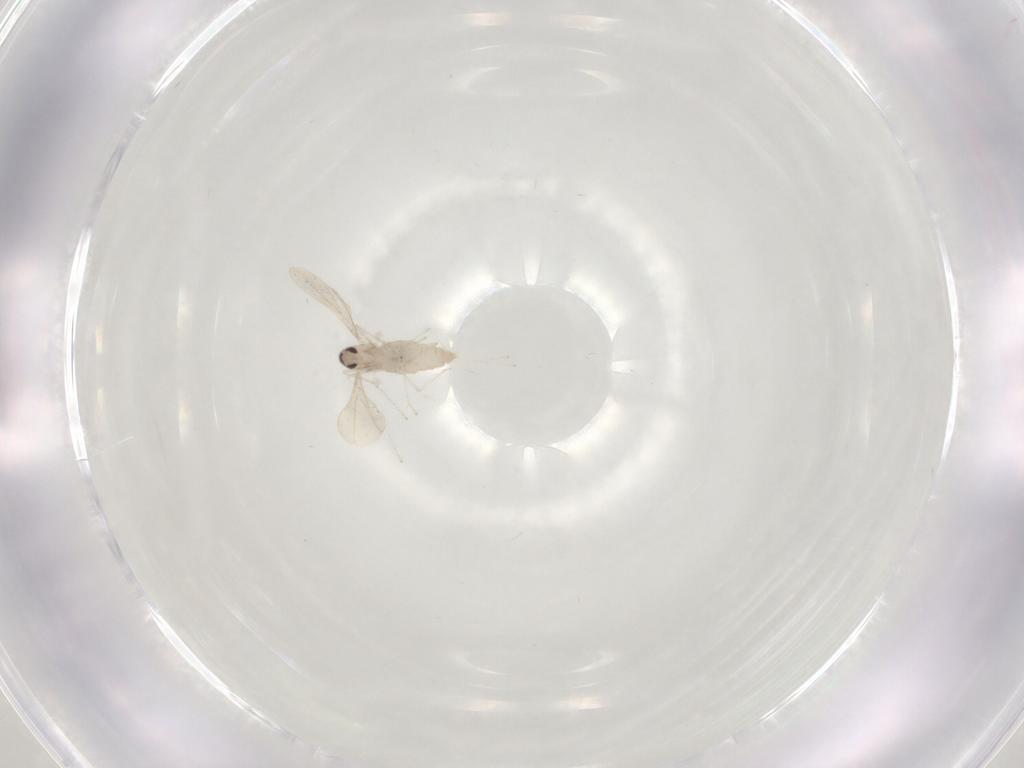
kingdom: Animalia
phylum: Arthropoda
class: Insecta
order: Diptera
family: Cecidomyiidae
